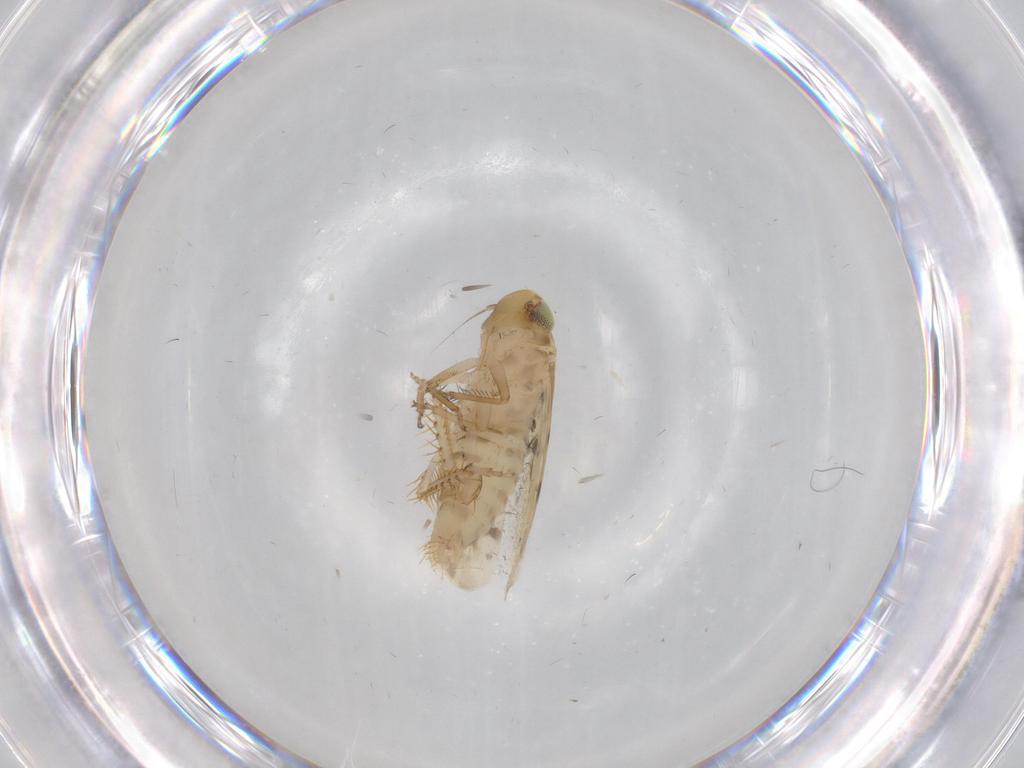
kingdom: Animalia
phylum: Arthropoda
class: Insecta
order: Hemiptera
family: Cicadellidae
